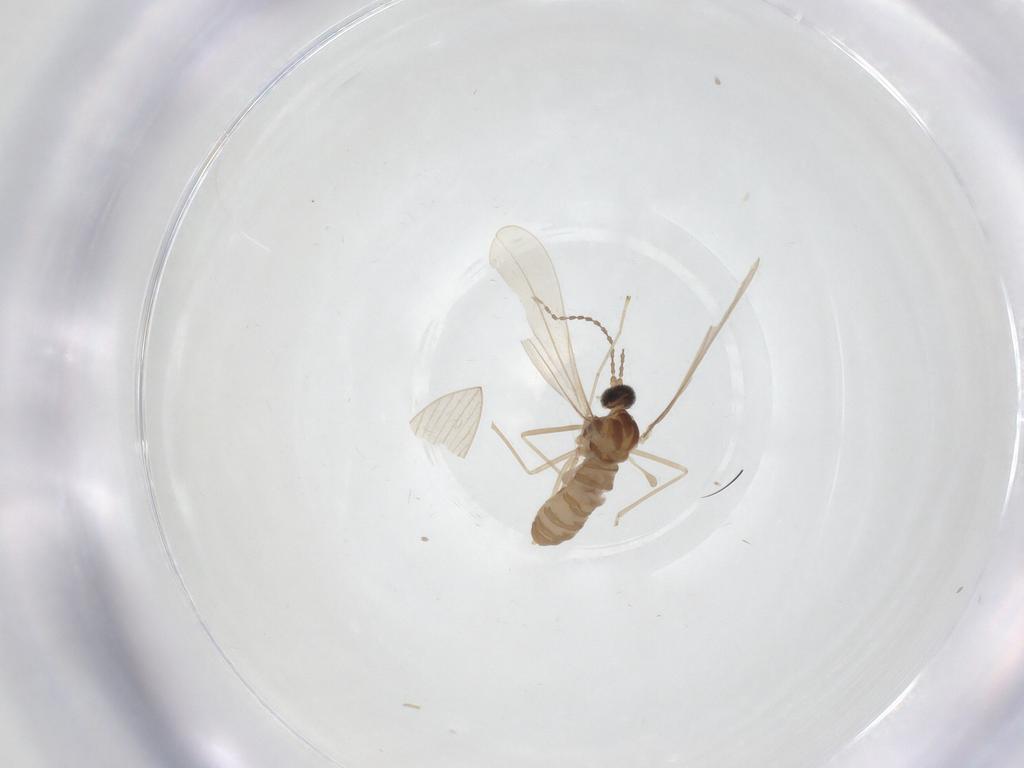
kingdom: Animalia
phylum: Arthropoda
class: Insecta
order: Diptera
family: Cecidomyiidae
